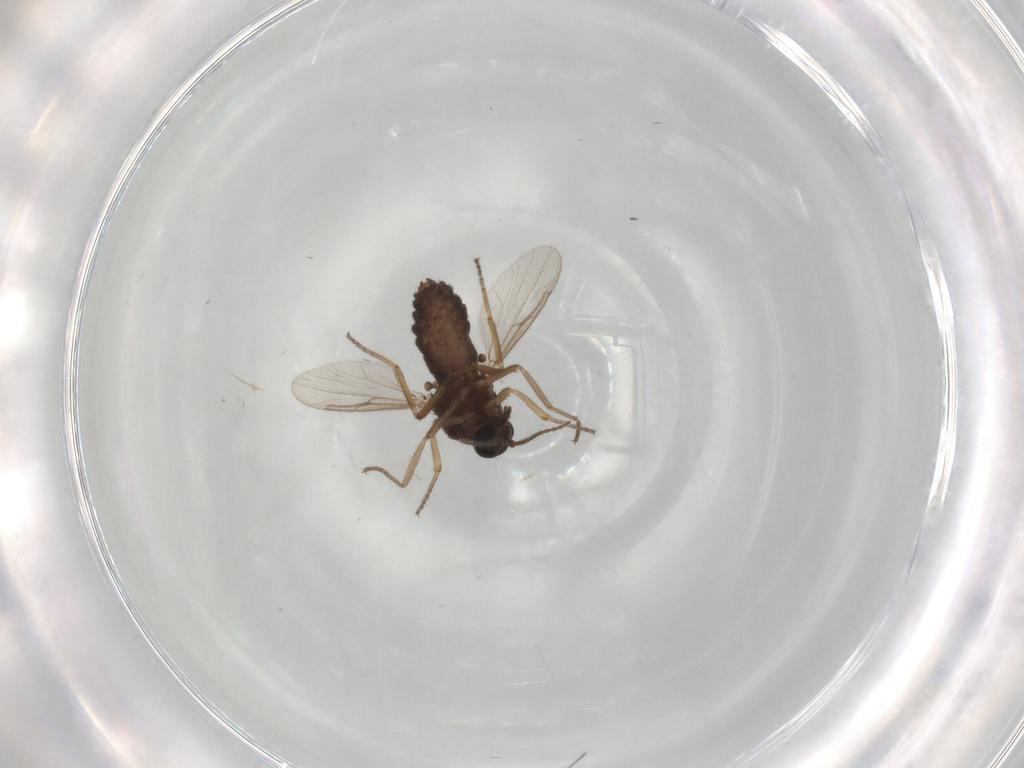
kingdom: Animalia
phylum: Arthropoda
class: Insecta
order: Diptera
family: Ceratopogonidae
